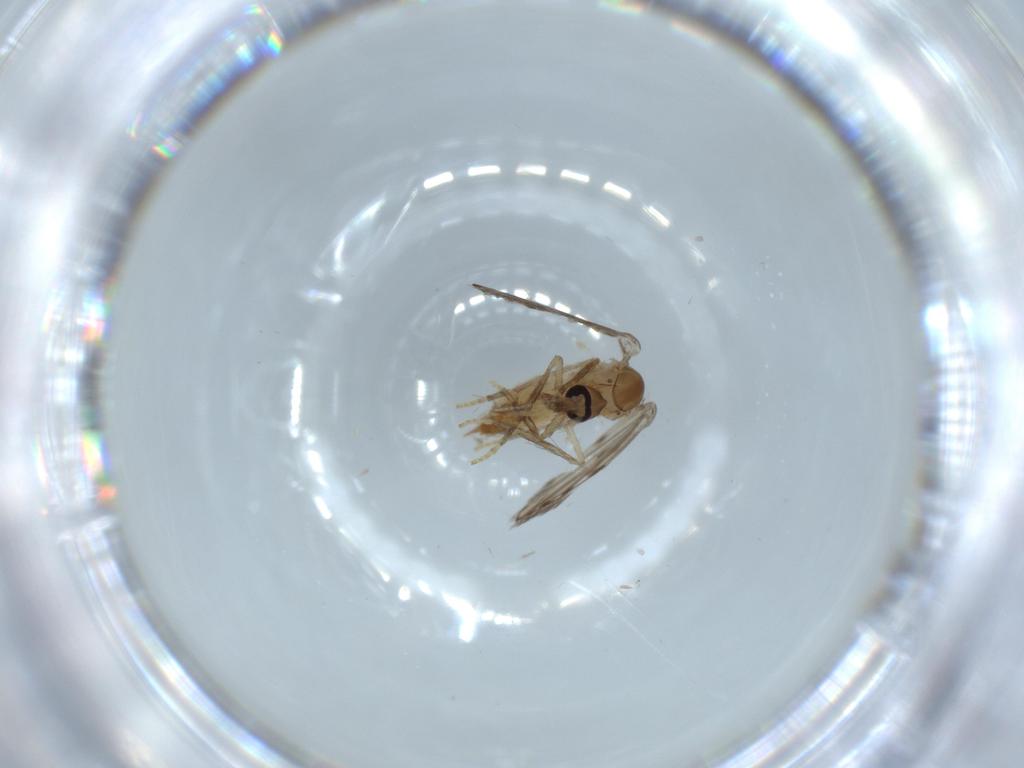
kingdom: Animalia
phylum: Arthropoda
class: Insecta
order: Diptera
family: Psychodidae
